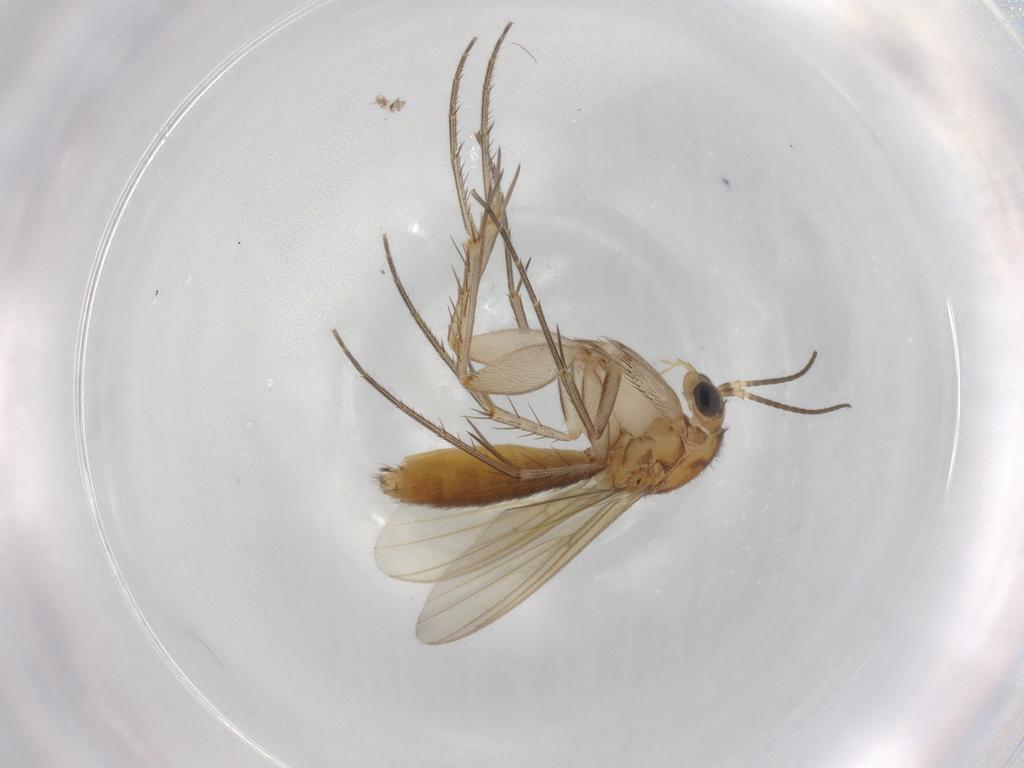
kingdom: Animalia
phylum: Arthropoda
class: Insecta
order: Diptera
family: Mycetophilidae
